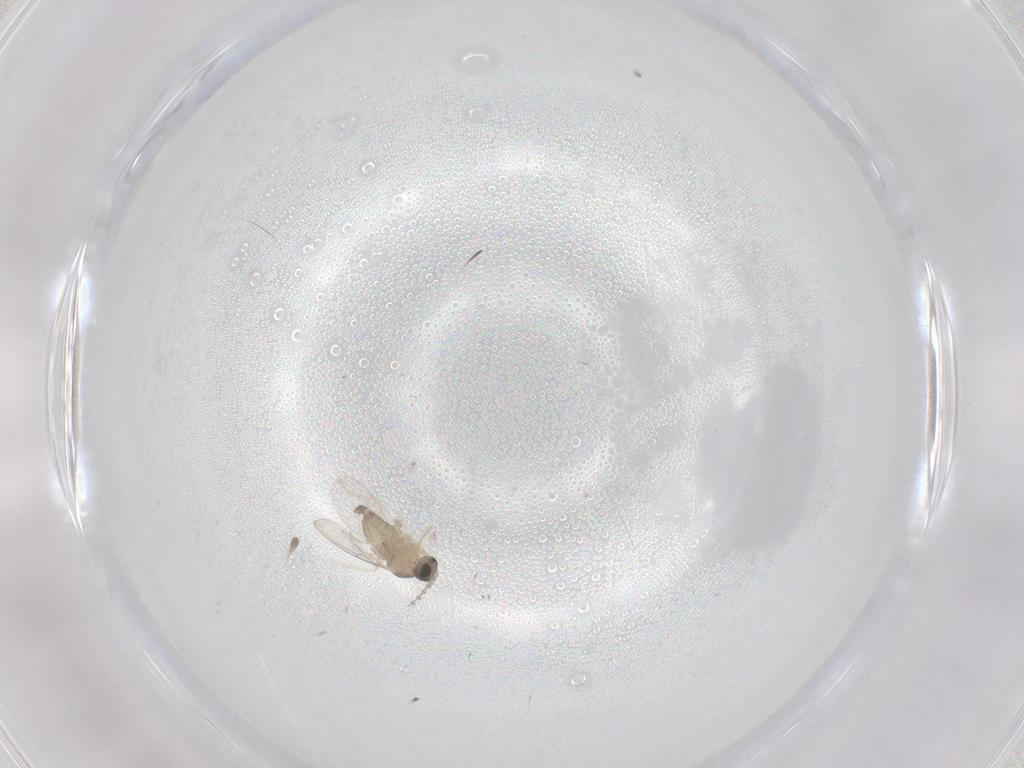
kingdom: Animalia
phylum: Arthropoda
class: Insecta
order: Diptera
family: Cecidomyiidae
